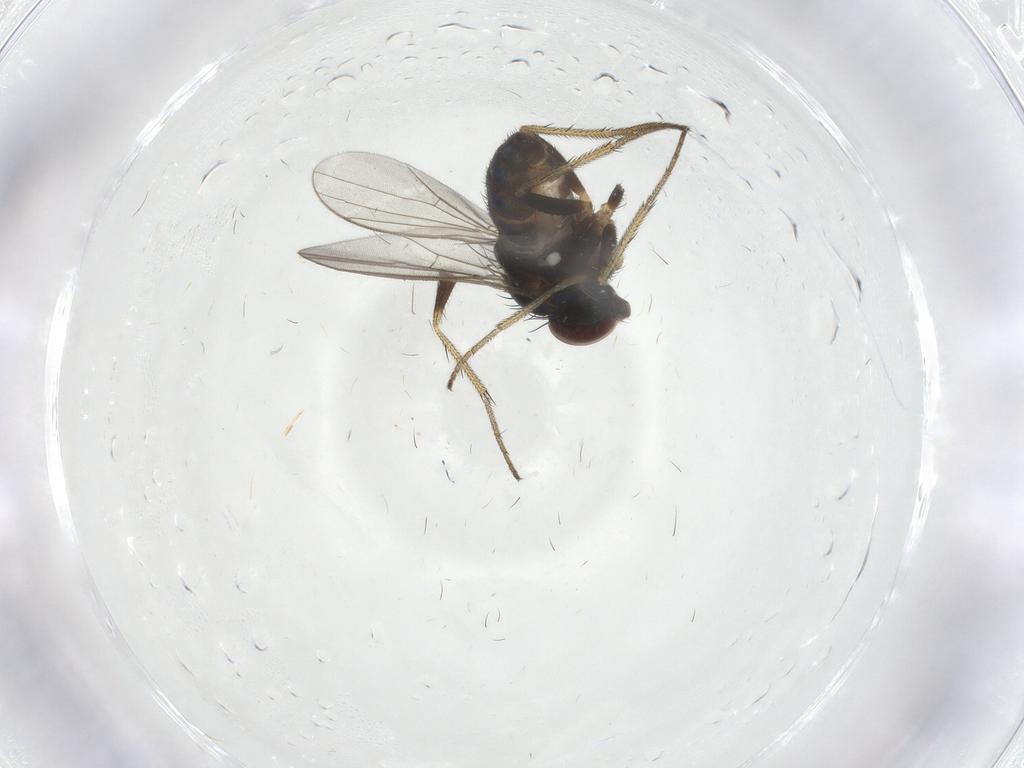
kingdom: Animalia
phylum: Arthropoda
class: Insecta
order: Diptera
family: Dolichopodidae
